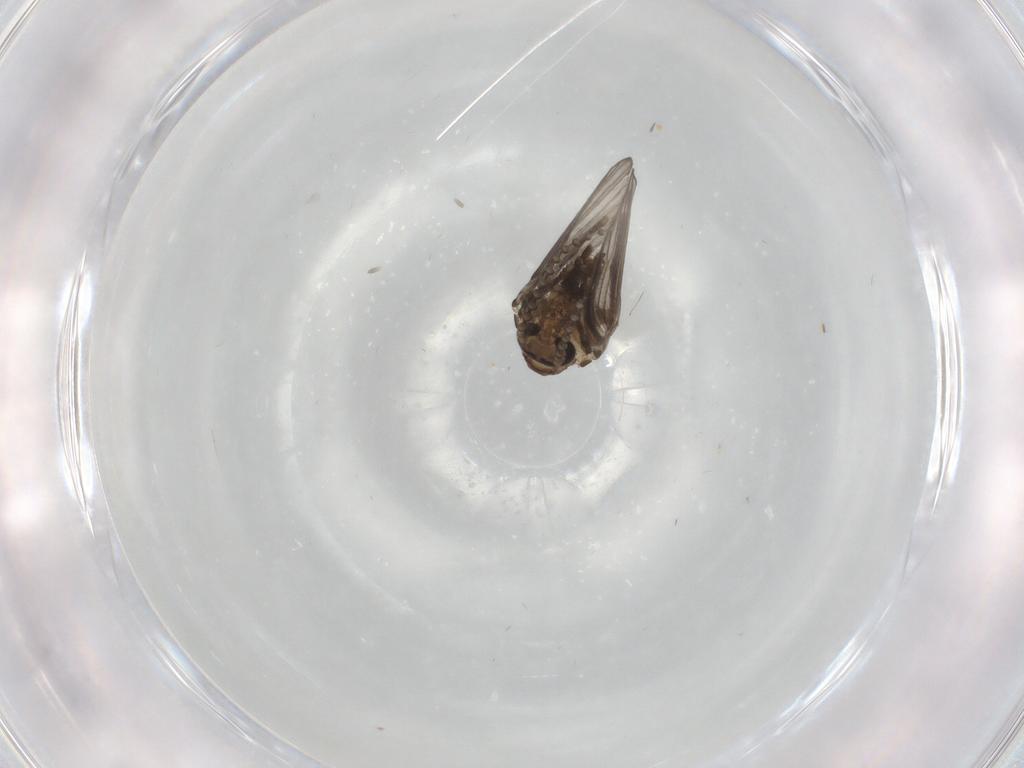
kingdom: Animalia
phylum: Arthropoda
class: Insecta
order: Diptera
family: Psychodidae
